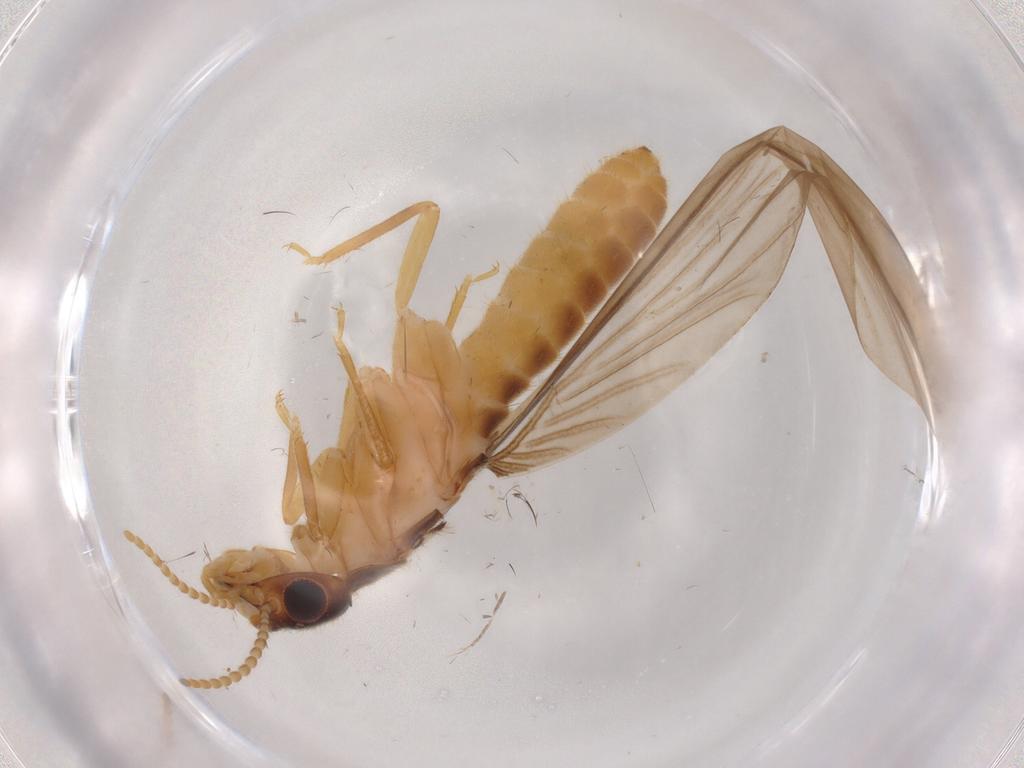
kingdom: Animalia
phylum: Arthropoda
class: Insecta
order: Blattodea
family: Termitidae
